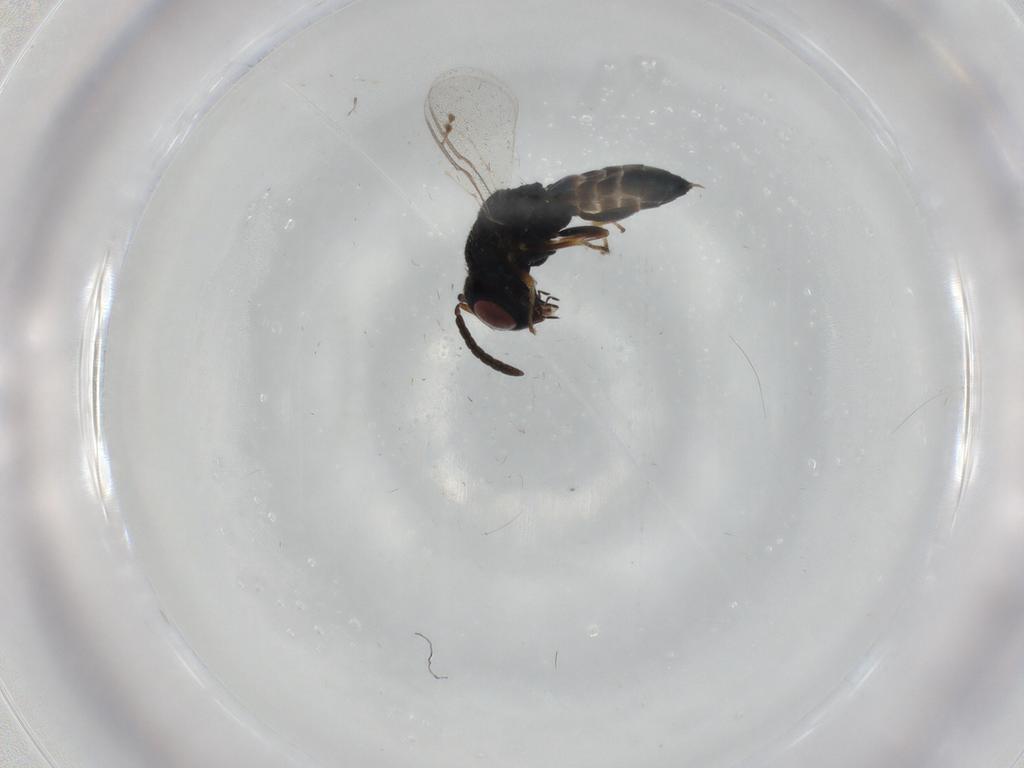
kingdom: Animalia
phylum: Arthropoda
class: Insecta
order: Hymenoptera
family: Pteromalidae
